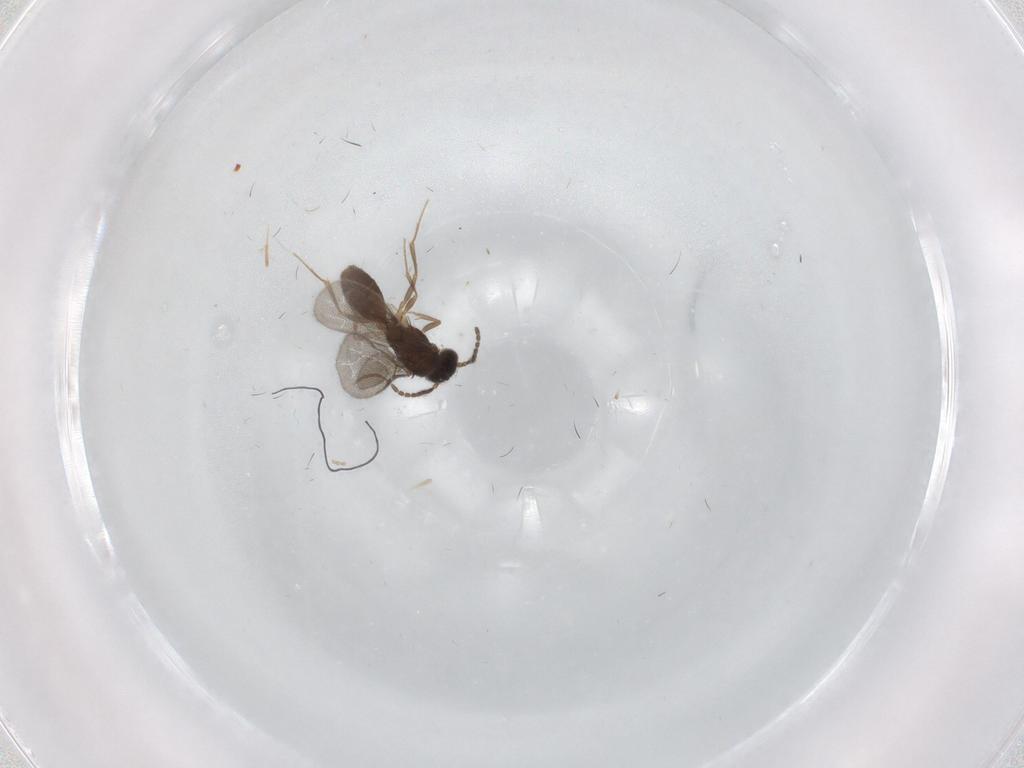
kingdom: Animalia
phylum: Arthropoda
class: Insecta
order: Hymenoptera
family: Bethylidae
